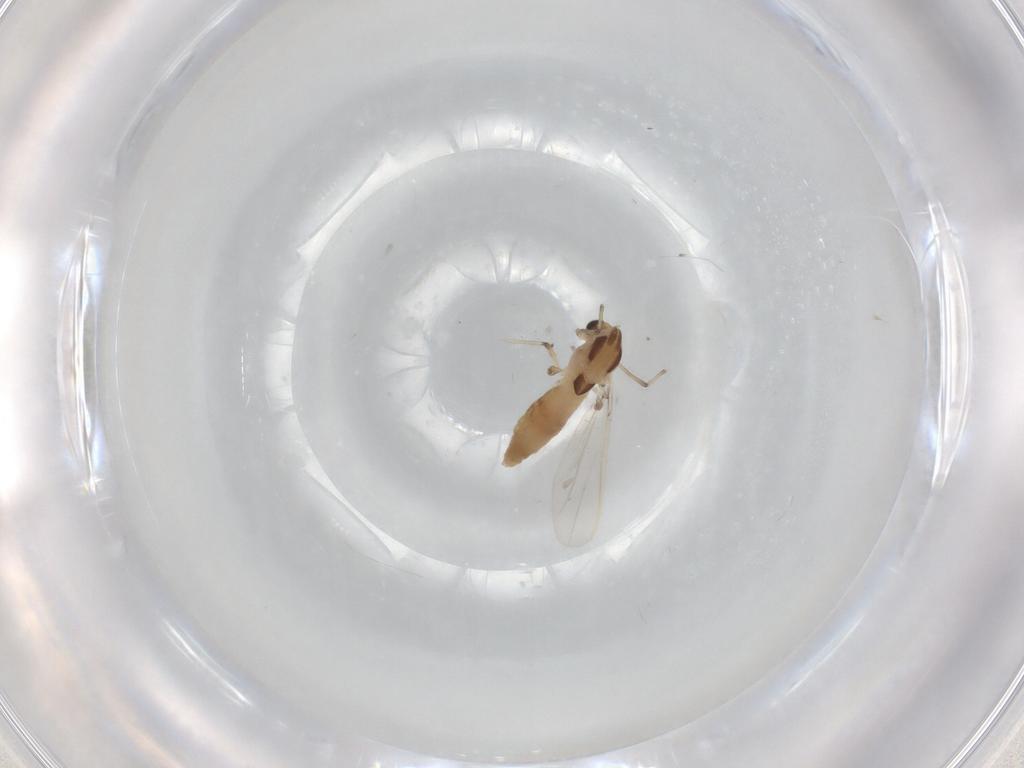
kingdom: Animalia
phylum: Arthropoda
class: Insecta
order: Diptera
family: Chironomidae
